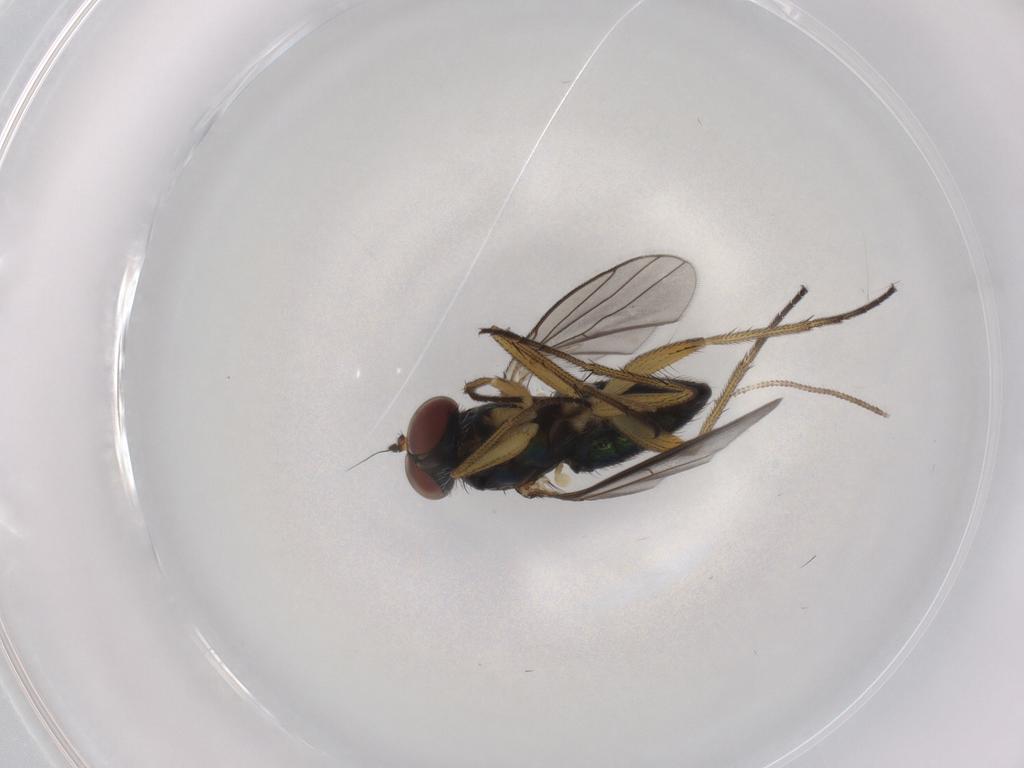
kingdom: Animalia
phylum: Arthropoda
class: Insecta
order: Diptera
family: Dolichopodidae
